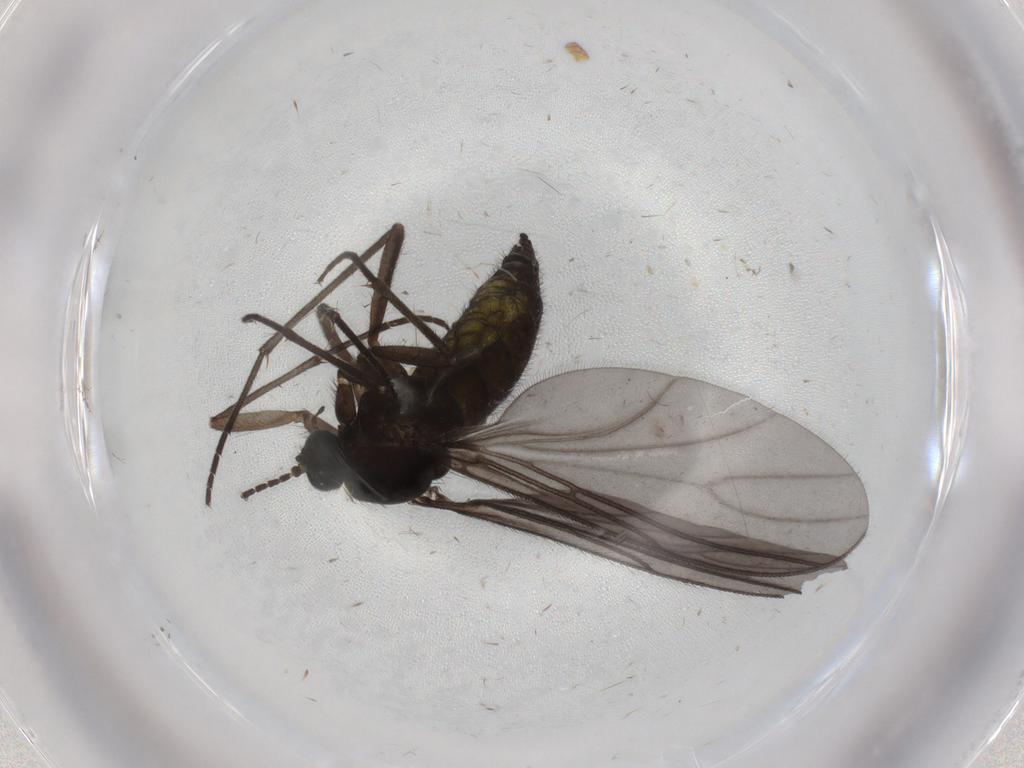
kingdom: Animalia
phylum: Arthropoda
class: Insecta
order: Diptera
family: Sciaridae
